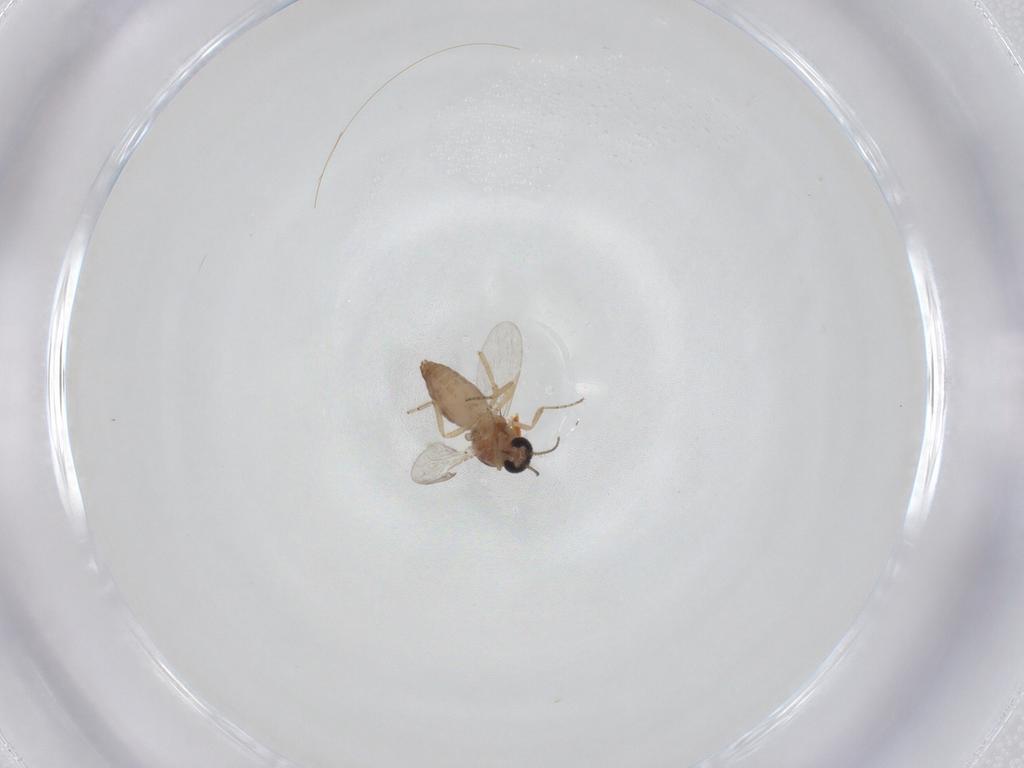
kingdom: Animalia
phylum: Arthropoda
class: Insecta
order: Diptera
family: Ceratopogonidae
